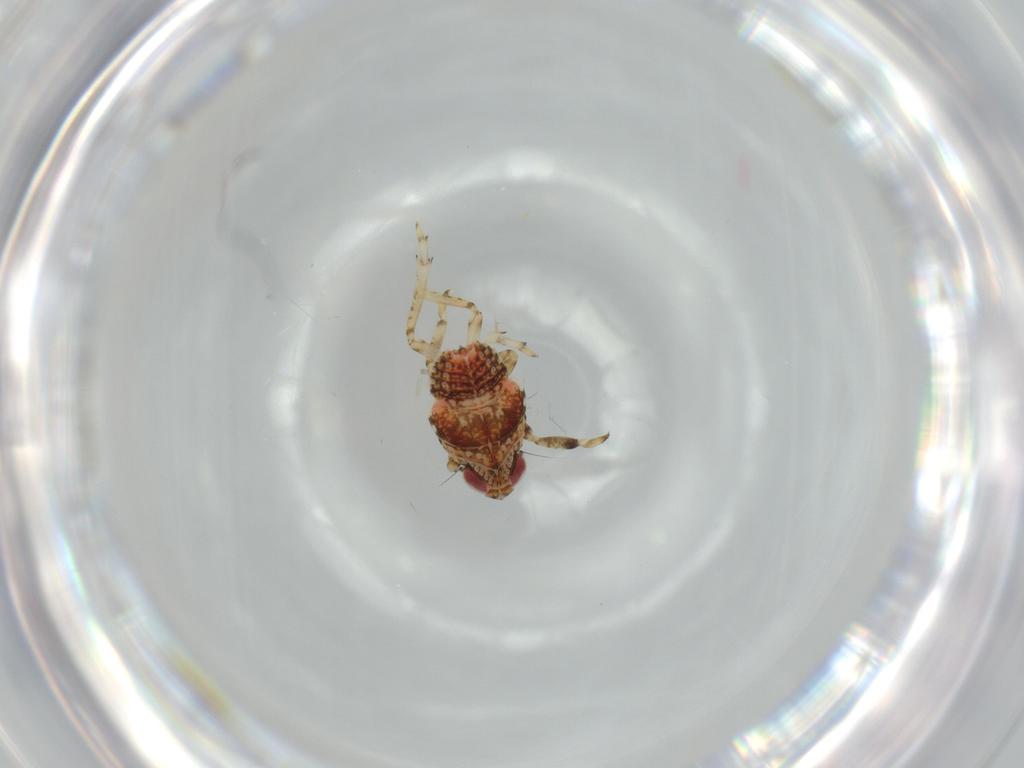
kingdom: Animalia
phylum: Arthropoda
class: Insecta
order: Hemiptera
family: Issidae
